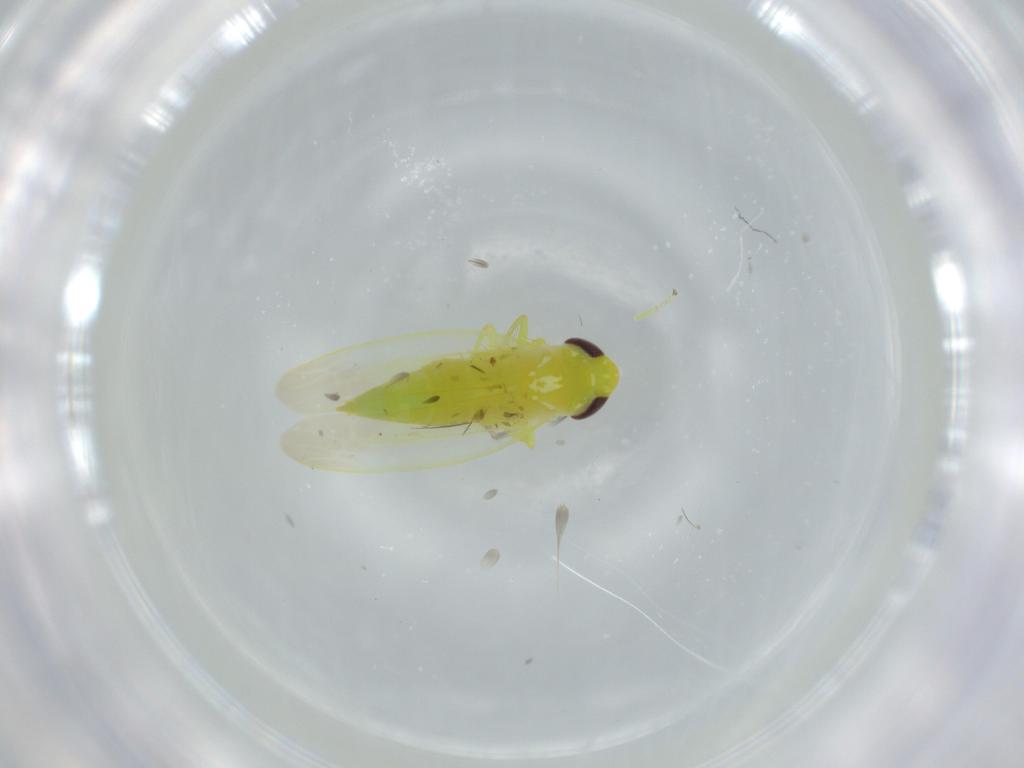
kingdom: Animalia
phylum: Arthropoda
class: Insecta
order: Hemiptera
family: Cicadellidae
